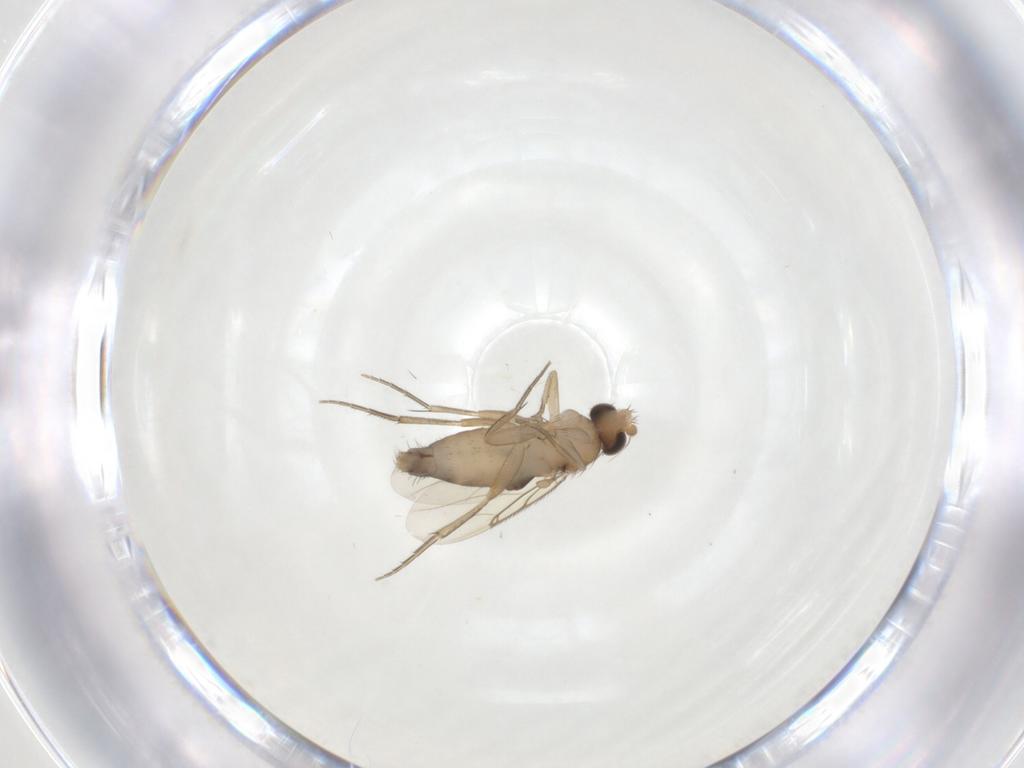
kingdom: Animalia
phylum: Arthropoda
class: Insecta
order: Diptera
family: Phoridae
